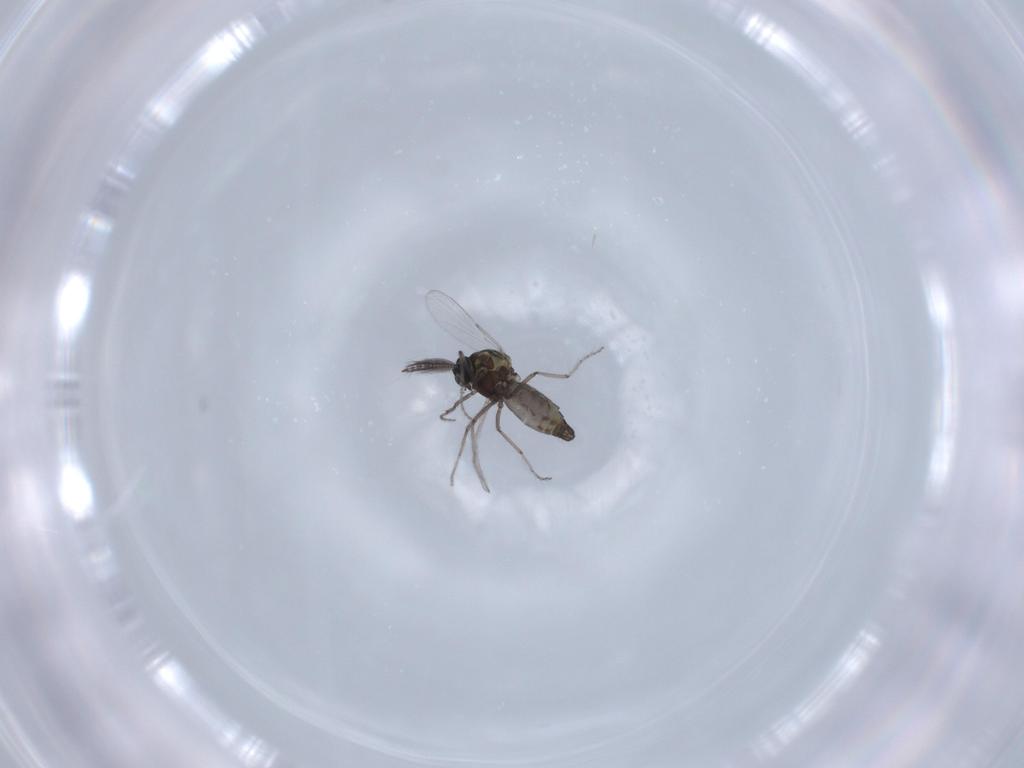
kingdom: Animalia
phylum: Arthropoda
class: Insecta
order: Diptera
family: Ceratopogonidae
